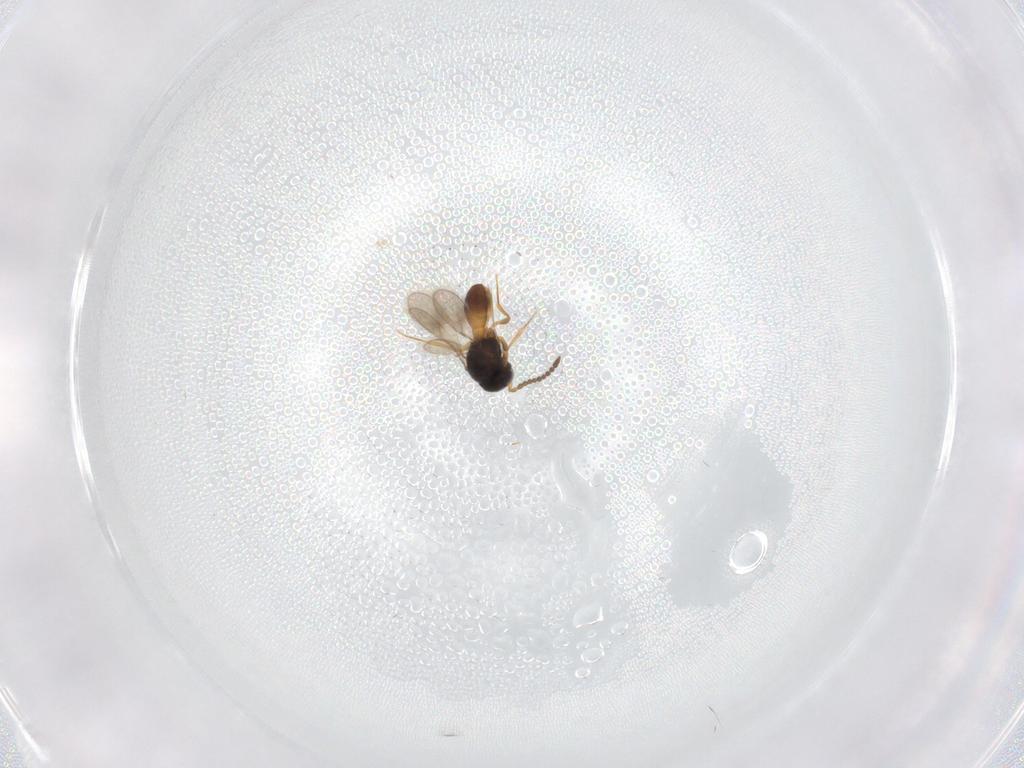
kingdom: Animalia
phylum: Arthropoda
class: Insecta
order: Hymenoptera
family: Scelionidae
